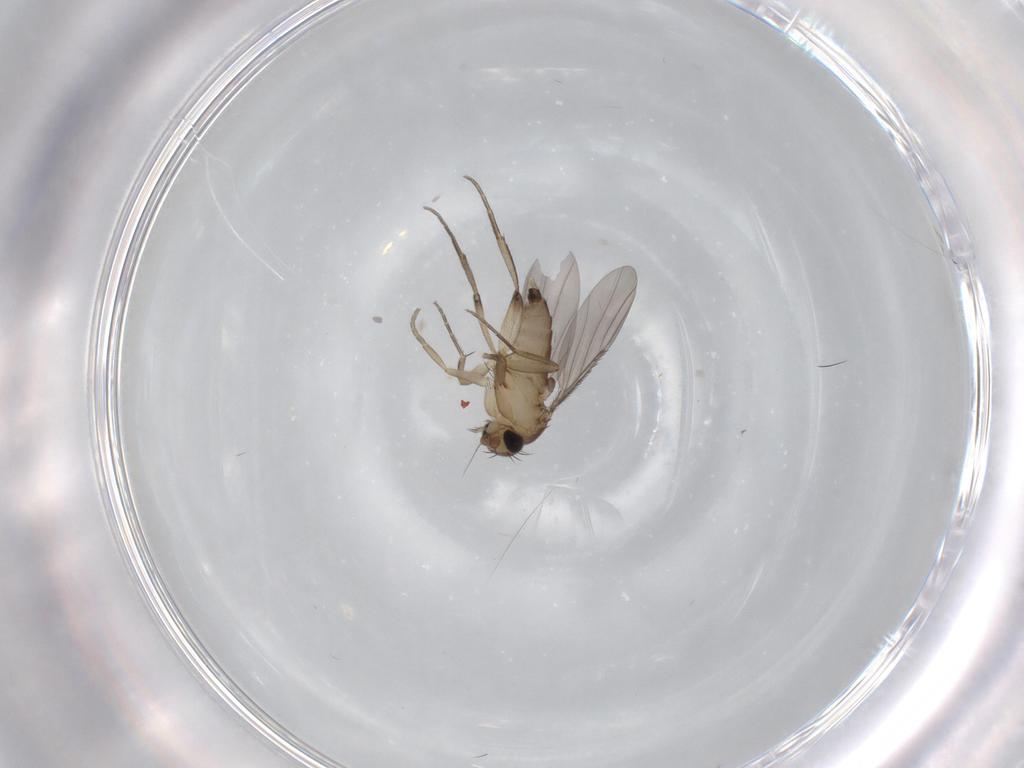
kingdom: Animalia
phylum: Arthropoda
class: Insecta
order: Diptera
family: Phoridae
